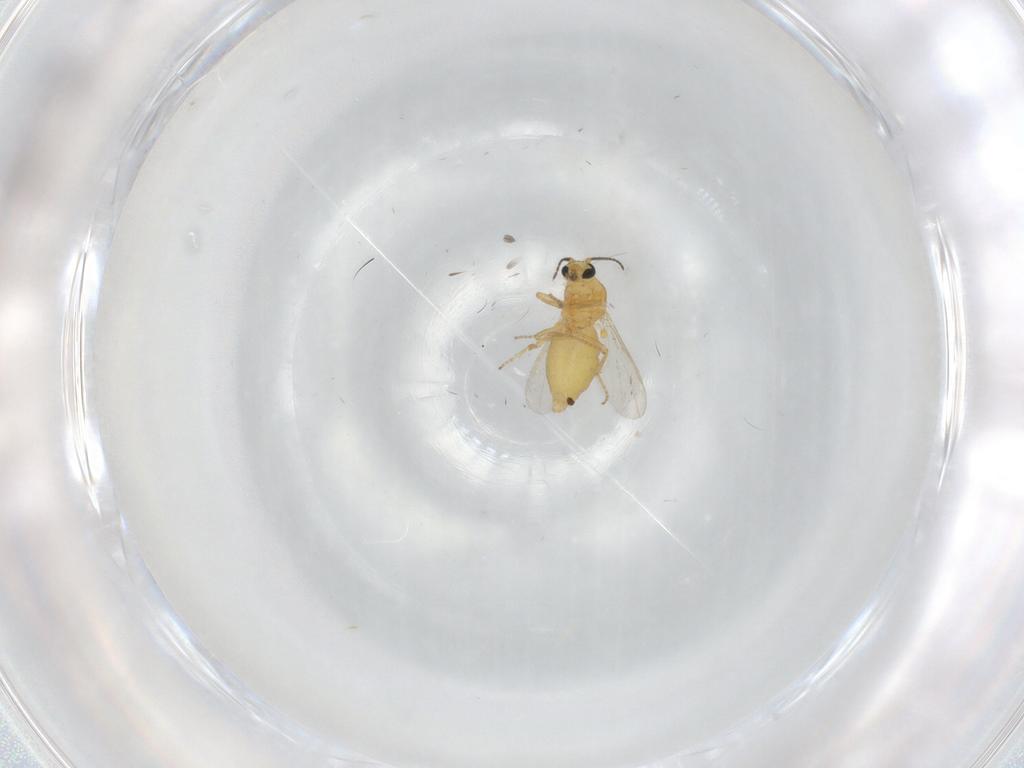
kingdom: Animalia
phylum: Arthropoda
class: Insecta
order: Diptera
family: Ceratopogonidae
